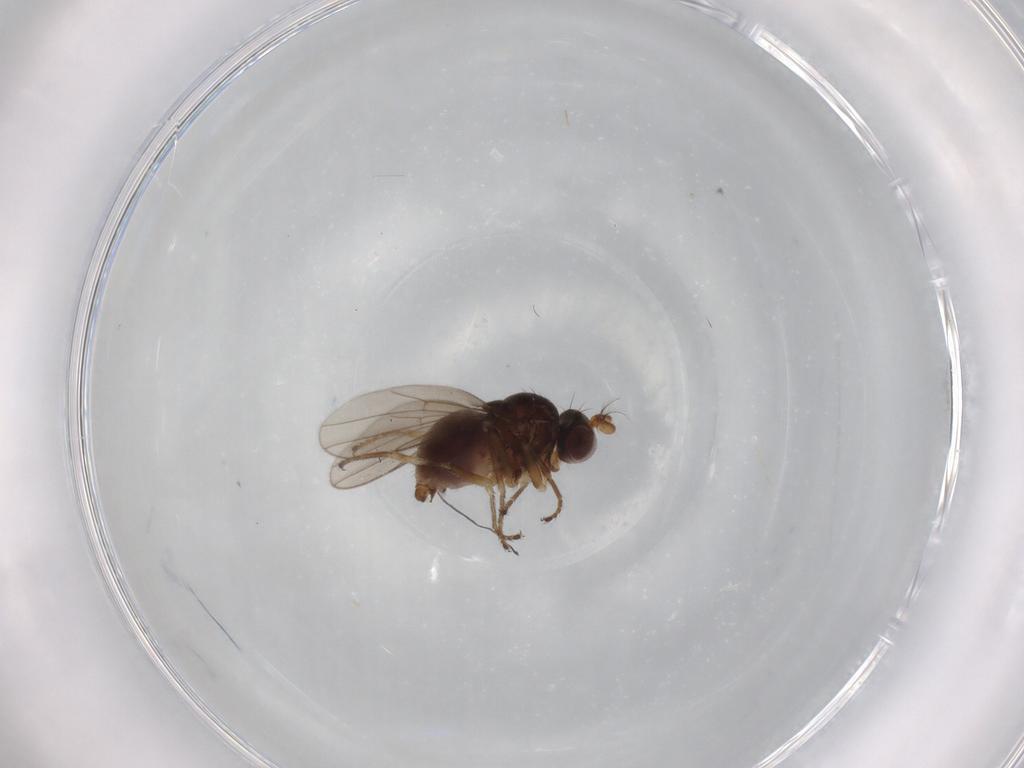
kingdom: Animalia
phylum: Arthropoda
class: Insecta
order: Diptera
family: Ephydridae
